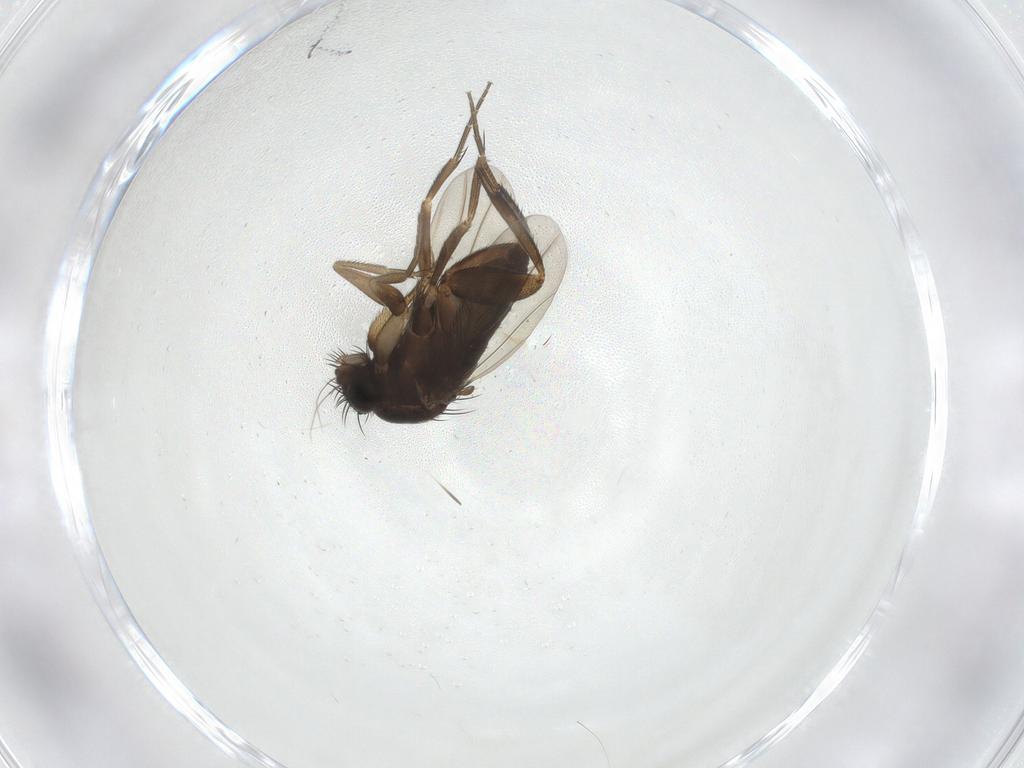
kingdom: Animalia
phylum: Arthropoda
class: Insecta
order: Diptera
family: Phoridae
